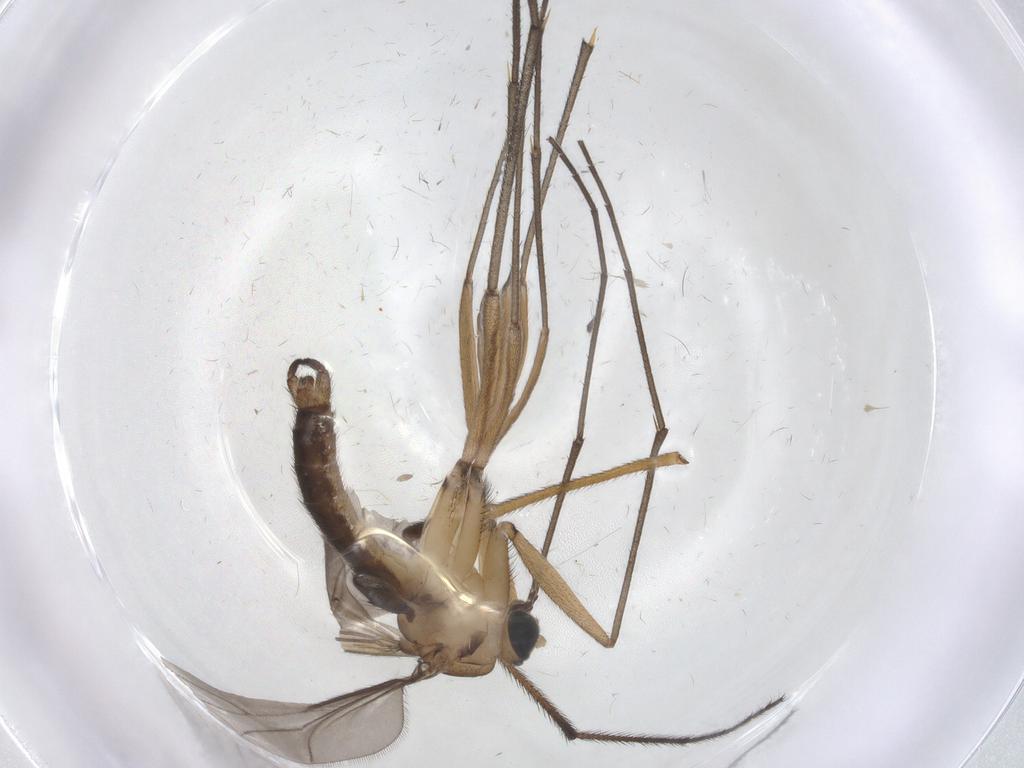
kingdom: Animalia
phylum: Arthropoda
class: Insecta
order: Diptera
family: Sciaridae
